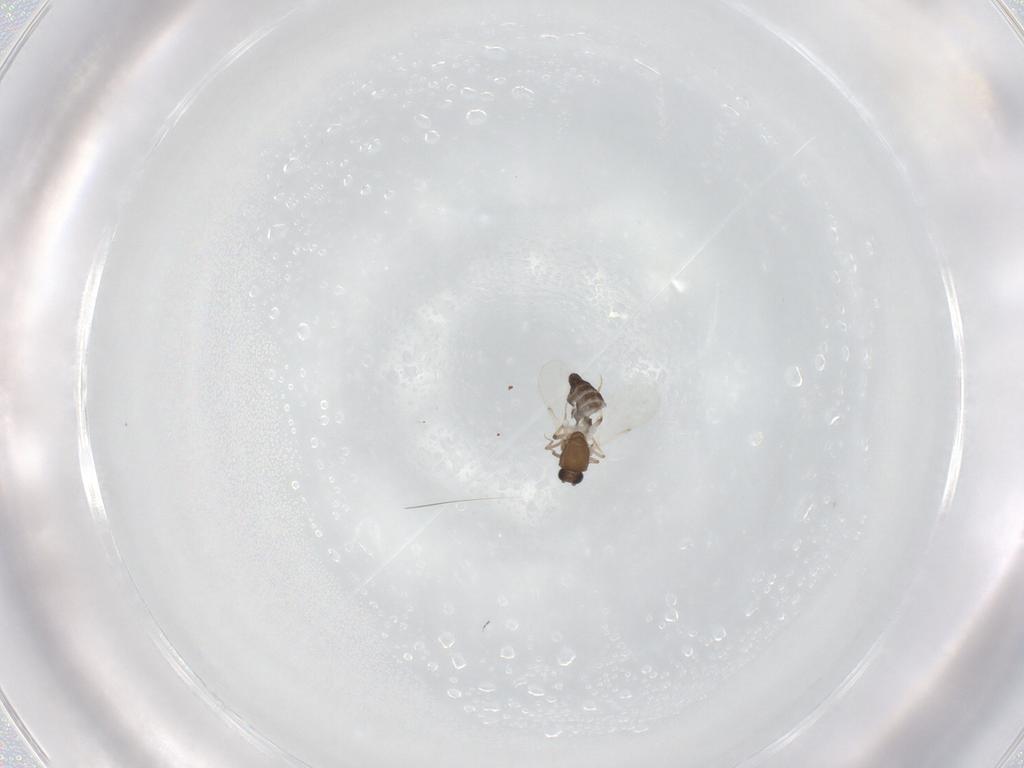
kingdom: Animalia
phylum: Arthropoda
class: Insecta
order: Diptera
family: Ceratopogonidae
